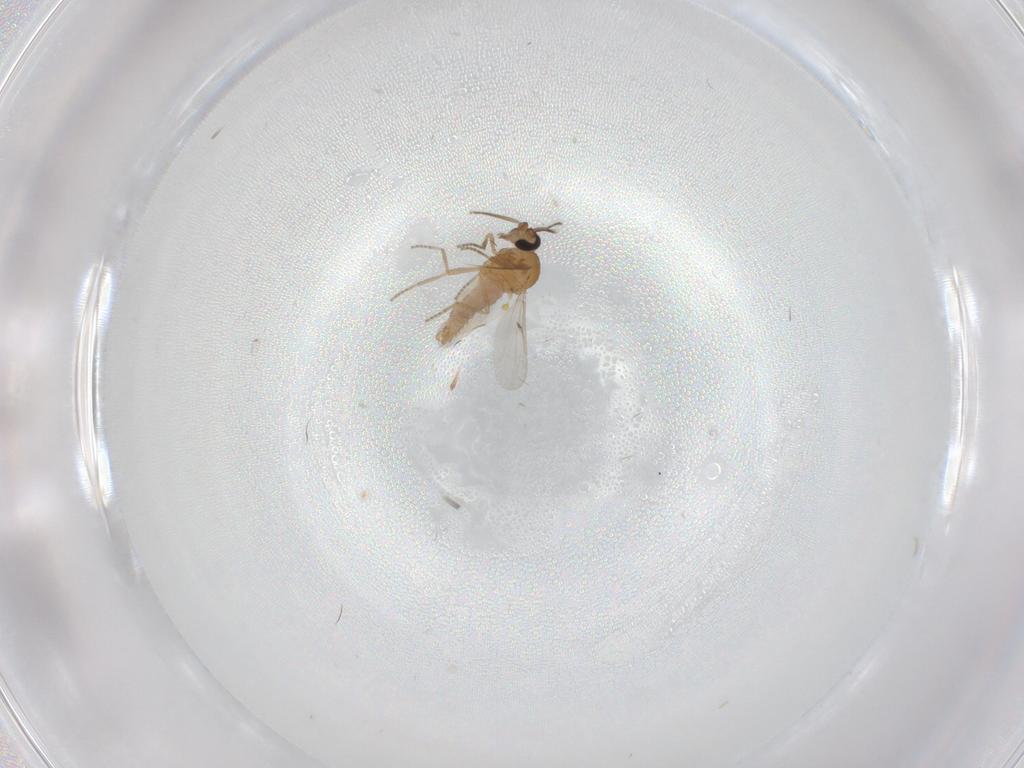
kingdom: Animalia
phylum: Arthropoda
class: Insecta
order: Diptera
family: Ceratopogonidae
